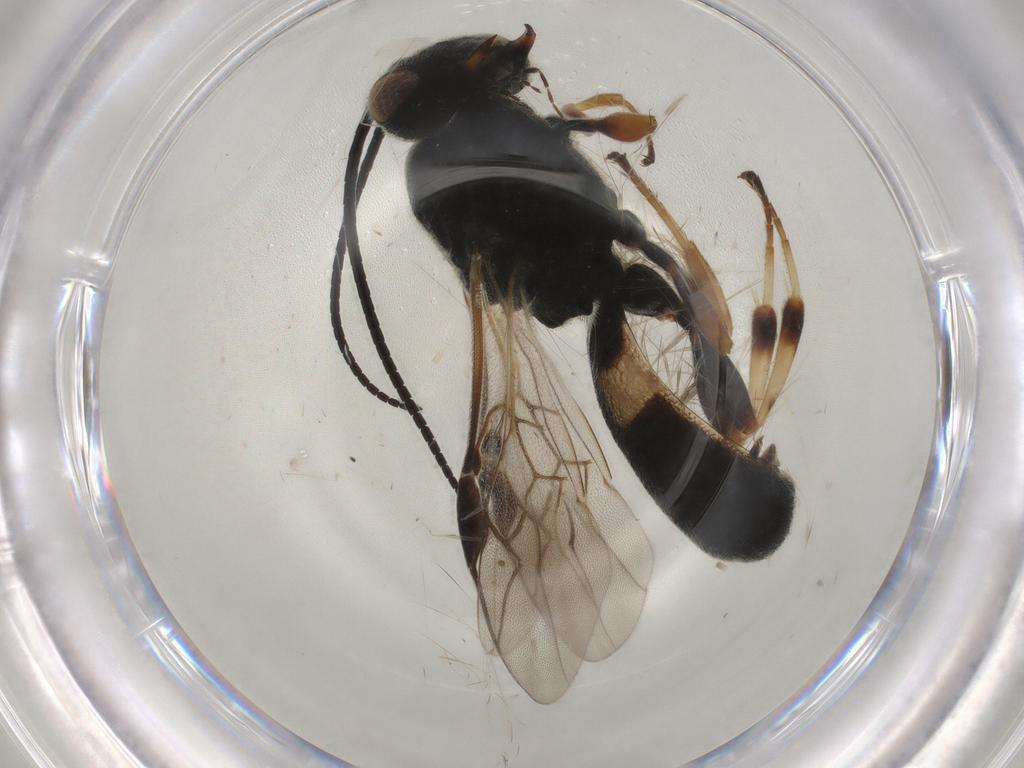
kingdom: Animalia
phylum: Arthropoda
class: Insecta
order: Hymenoptera
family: Braconidae
